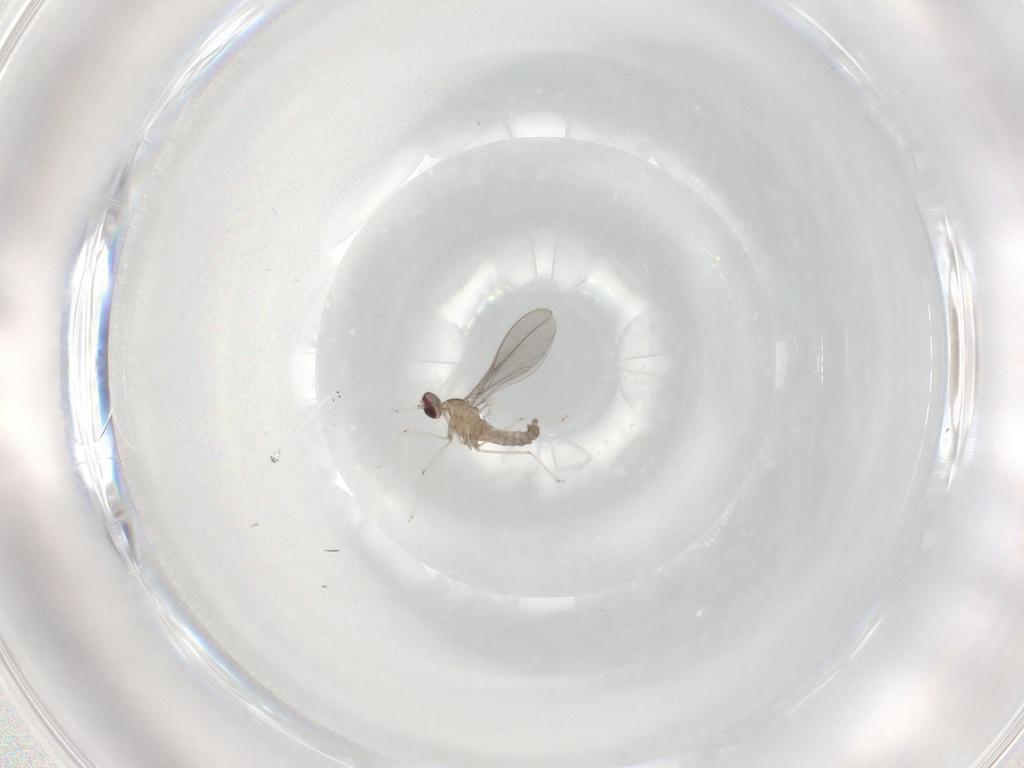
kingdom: Animalia
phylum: Arthropoda
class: Insecta
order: Diptera
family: Cecidomyiidae
